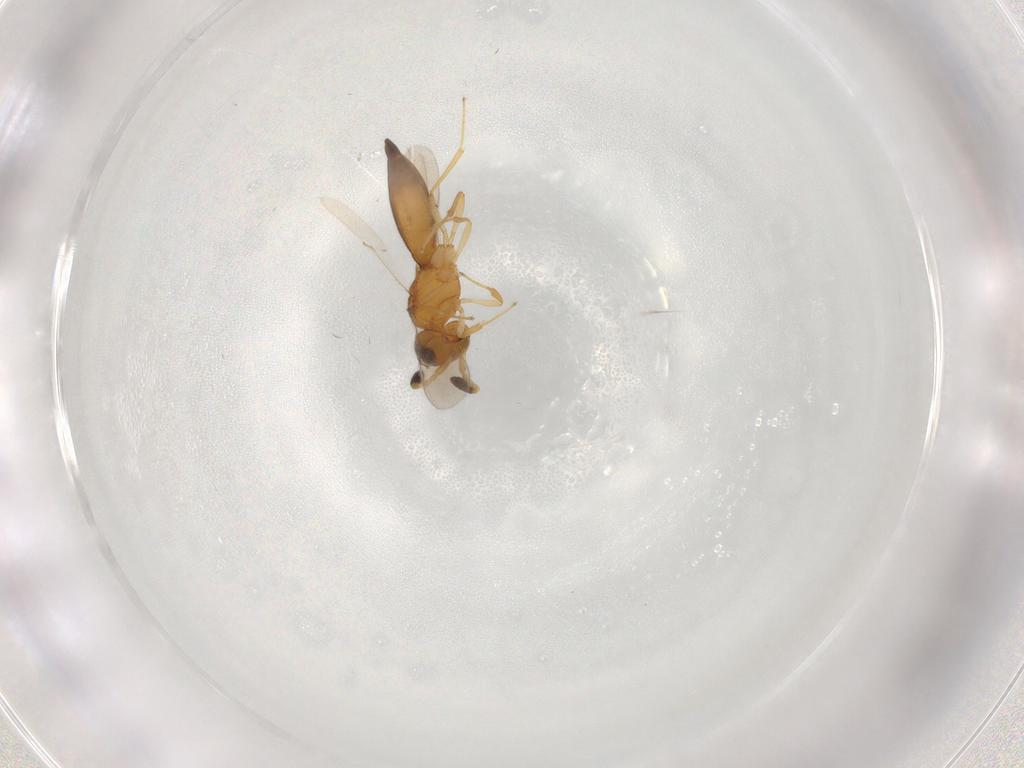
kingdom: Animalia
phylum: Arthropoda
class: Insecta
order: Hymenoptera
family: Scelionidae
